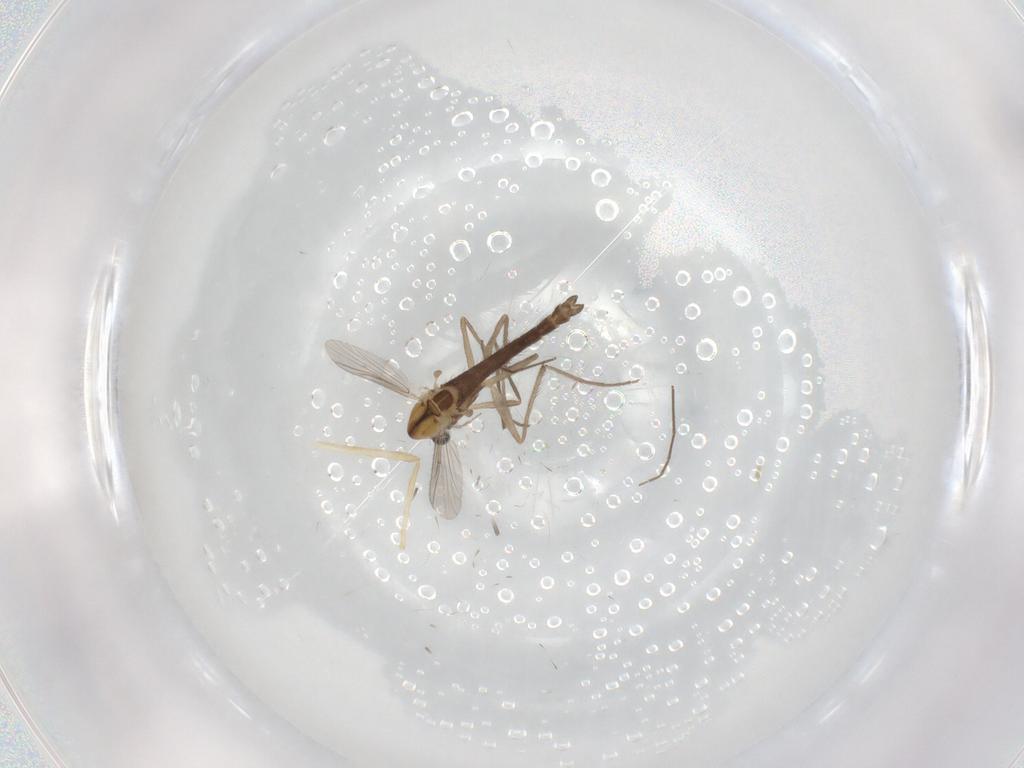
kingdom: Animalia
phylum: Arthropoda
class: Insecta
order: Diptera
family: Chironomidae
